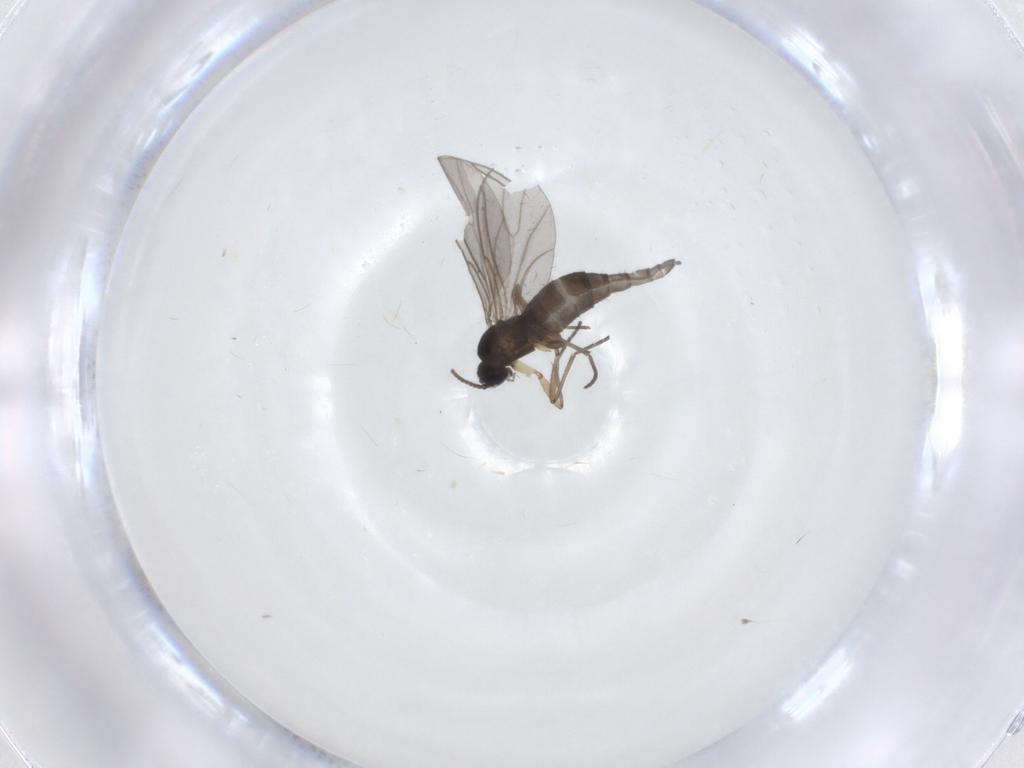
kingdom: Animalia
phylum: Arthropoda
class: Insecta
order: Diptera
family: Sciaridae
